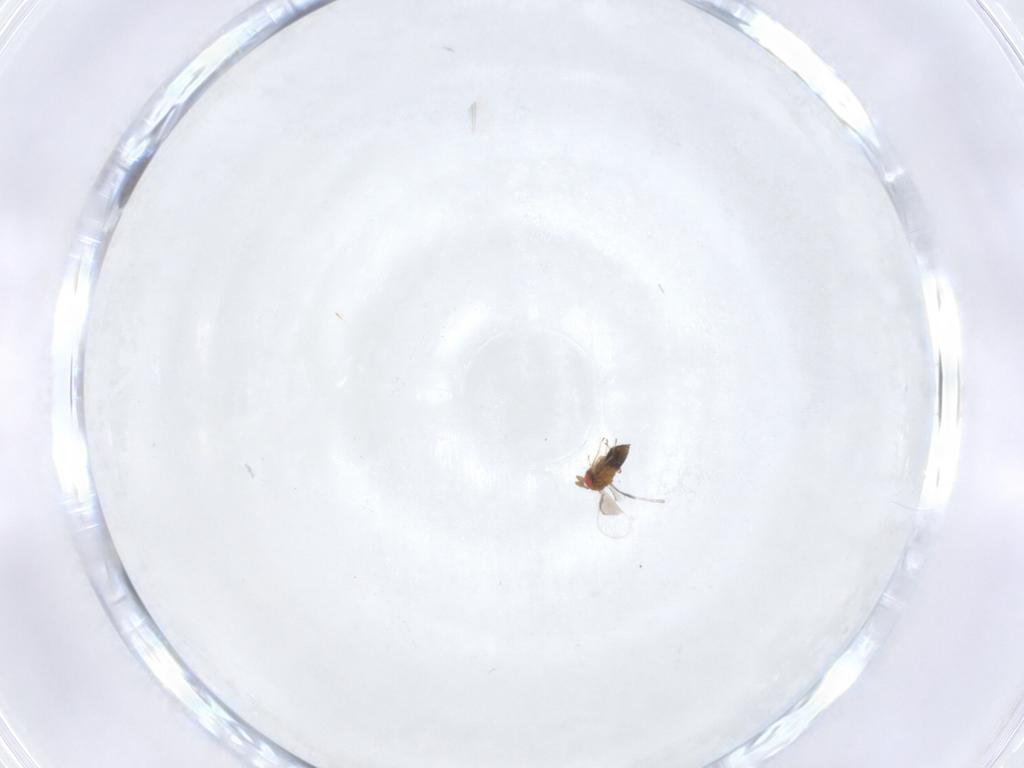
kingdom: Animalia
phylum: Arthropoda
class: Insecta
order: Hymenoptera
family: Trichogrammatidae
